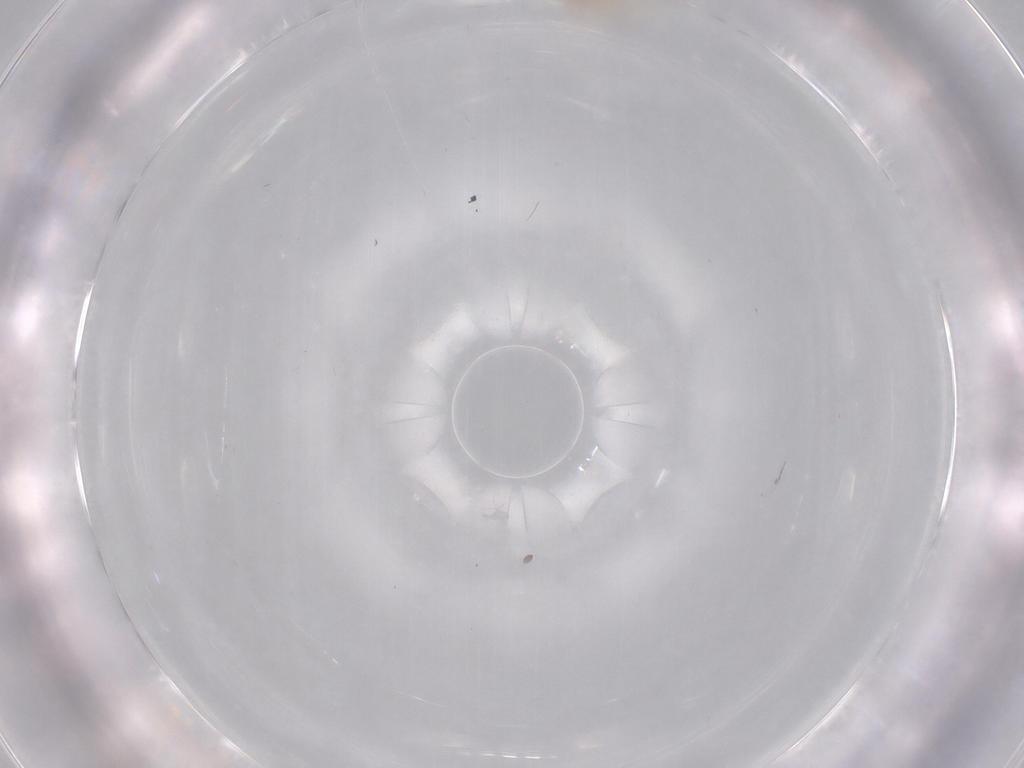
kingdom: Animalia
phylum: Arthropoda
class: Insecta
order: Diptera
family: Cecidomyiidae
